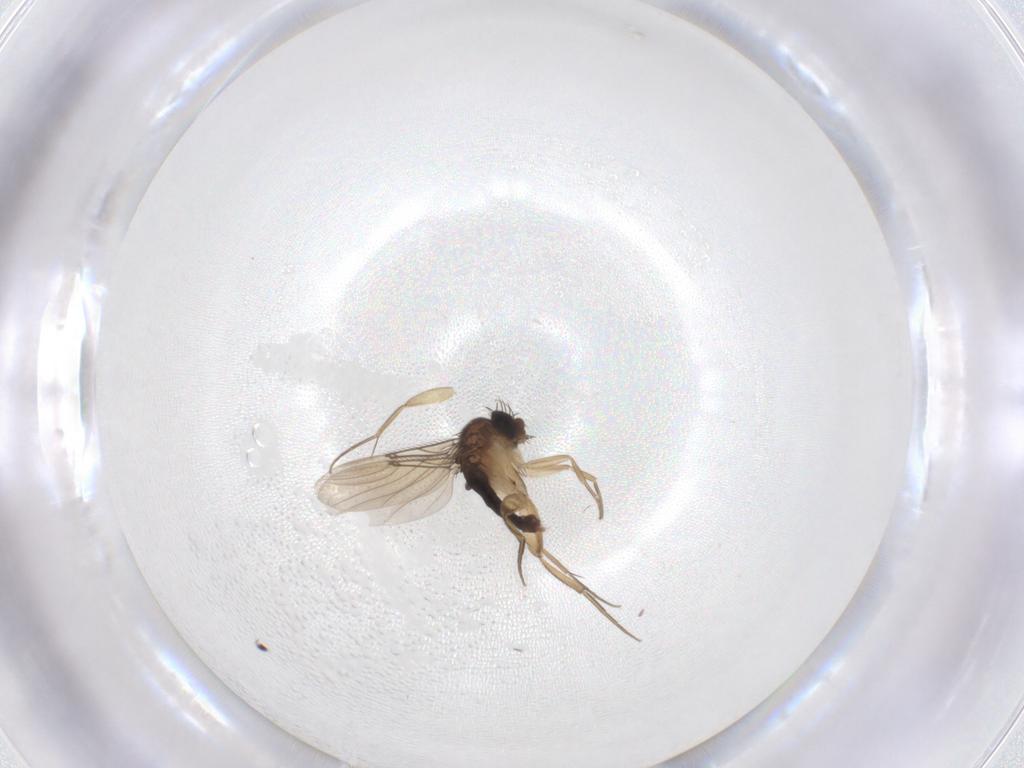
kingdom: Animalia
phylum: Arthropoda
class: Insecta
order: Diptera
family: Phoridae
